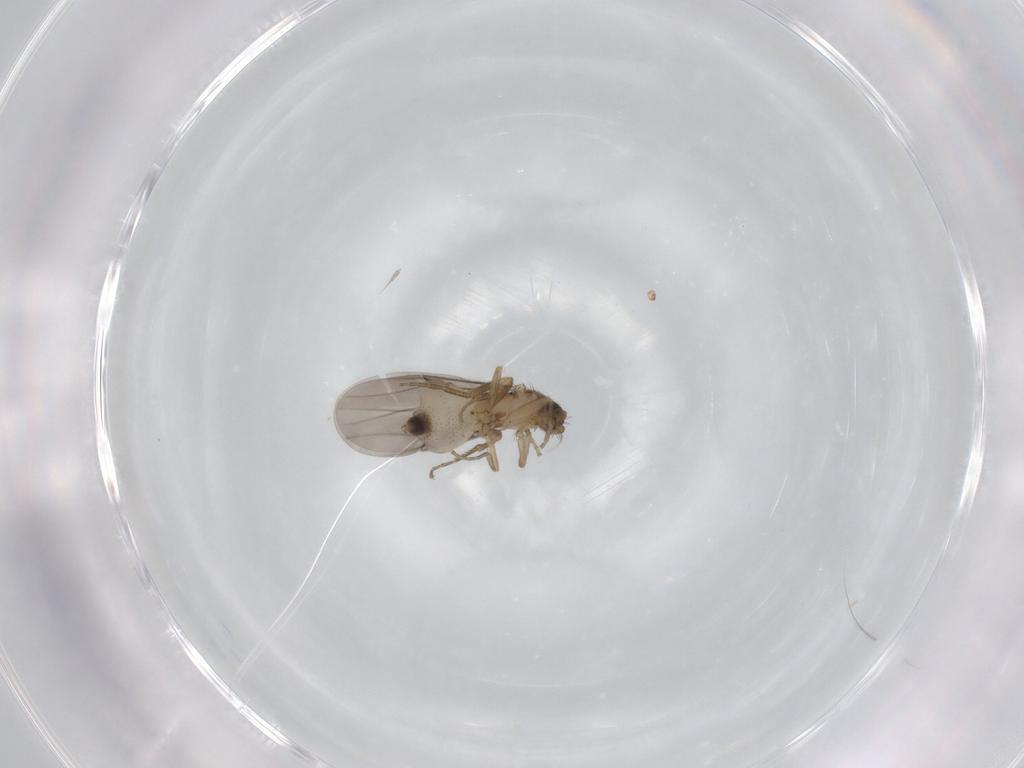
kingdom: Animalia
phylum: Arthropoda
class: Insecta
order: Diptera
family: Phoridae
